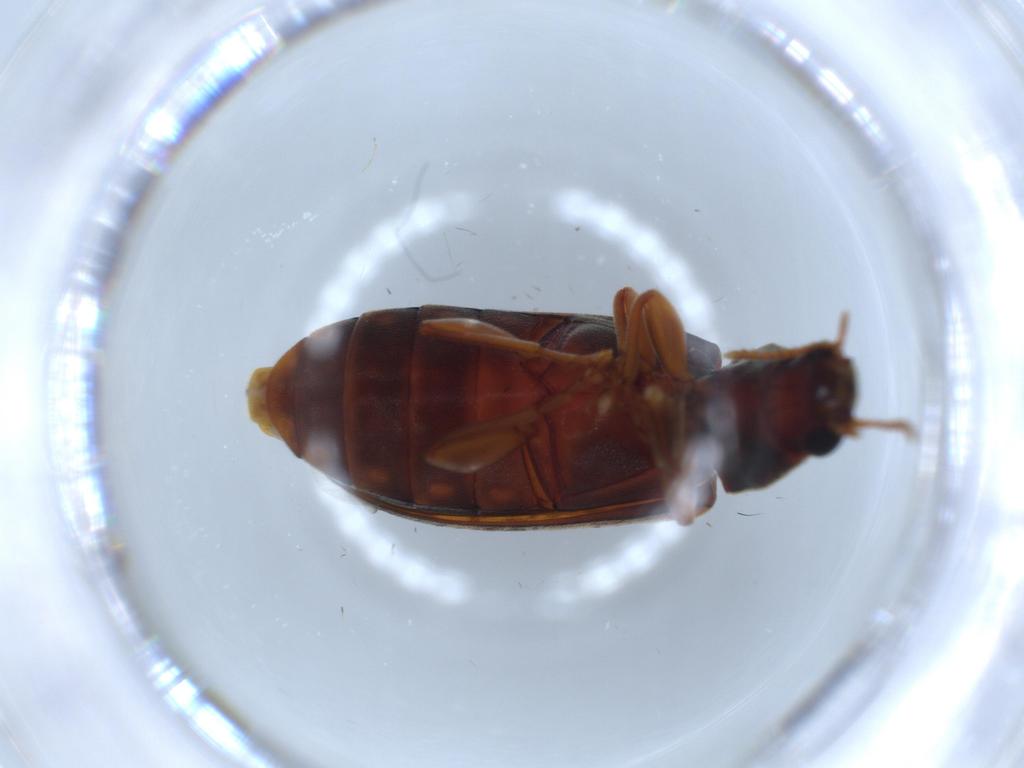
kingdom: Animalia
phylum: Arthropoda
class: Insecta
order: Coleoptera
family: Mycteridae
